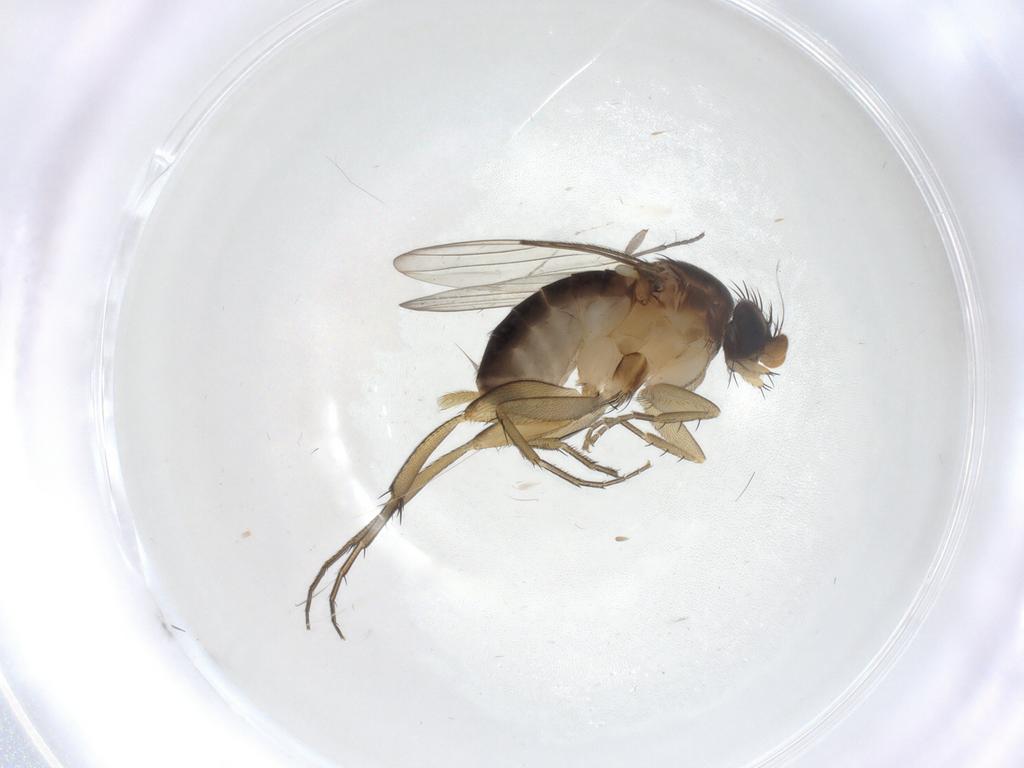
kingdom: Animalia
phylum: Arthropoda
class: Insecta
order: Diptera
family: Phoridae
